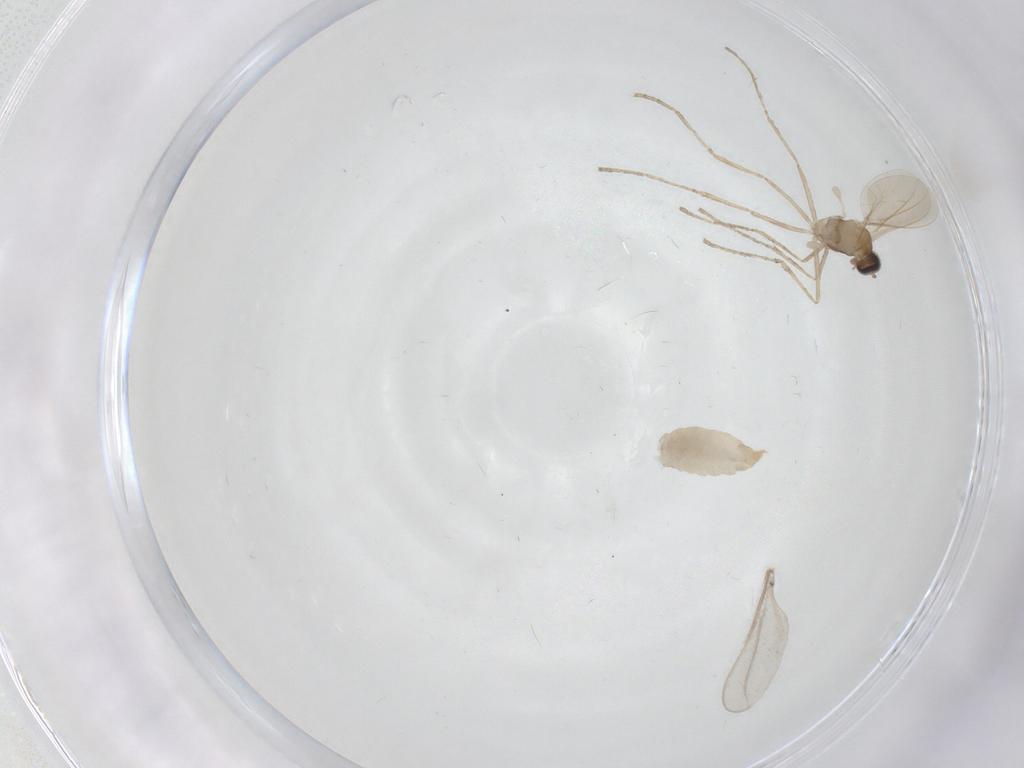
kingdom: Animalia
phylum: Arthropoda
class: Insecta
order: Diptera
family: Cecidomyiidae
